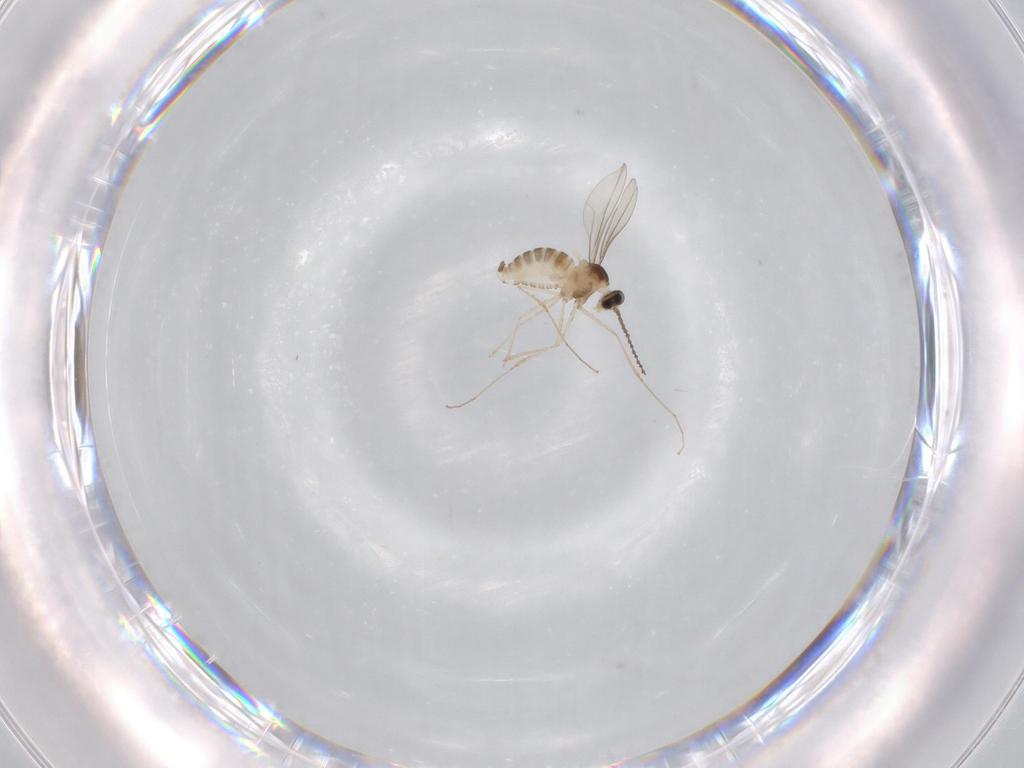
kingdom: Animalia
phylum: Arthropoda
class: Insecta
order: Diptera
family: Cecidomyiidae
